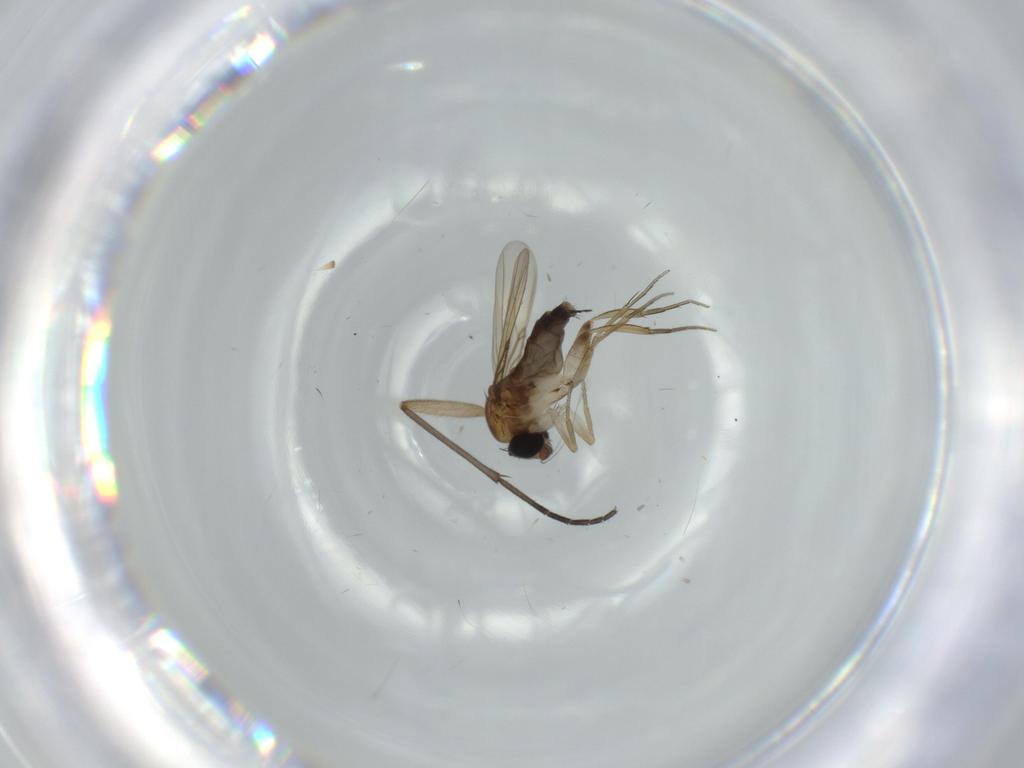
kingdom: Animalia
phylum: Arthropoda
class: Insecta
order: Diptera
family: Phoridae
